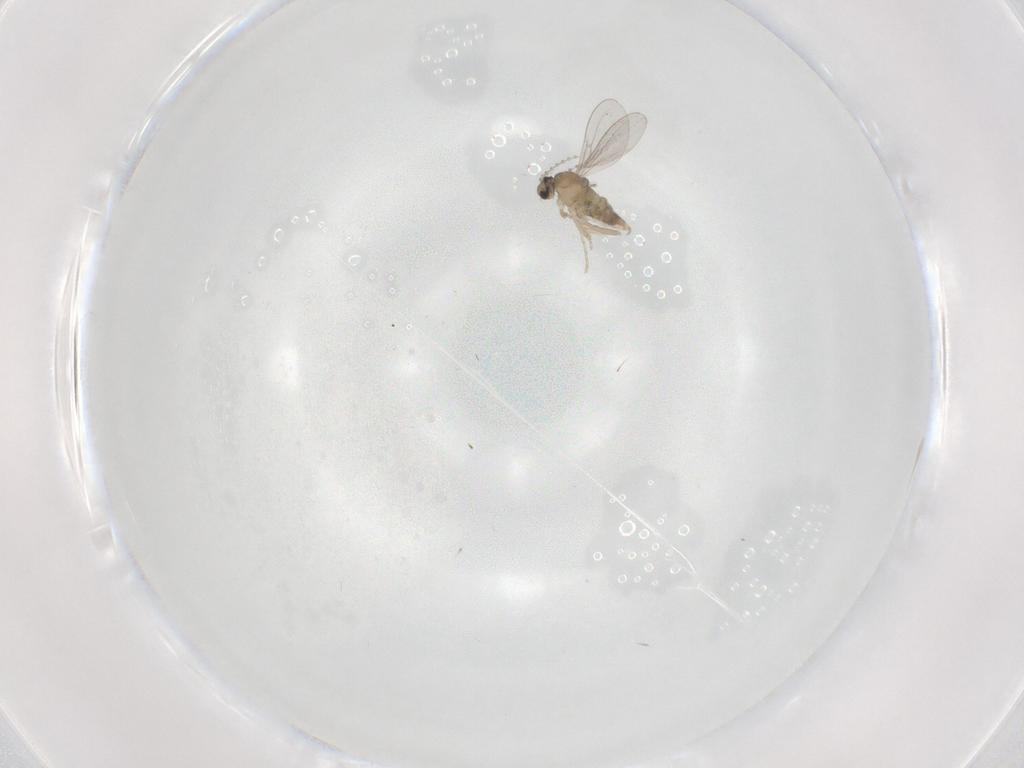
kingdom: Animalia
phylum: Arthropoda
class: Insecta
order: Diptera
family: Cecidomyiidae
